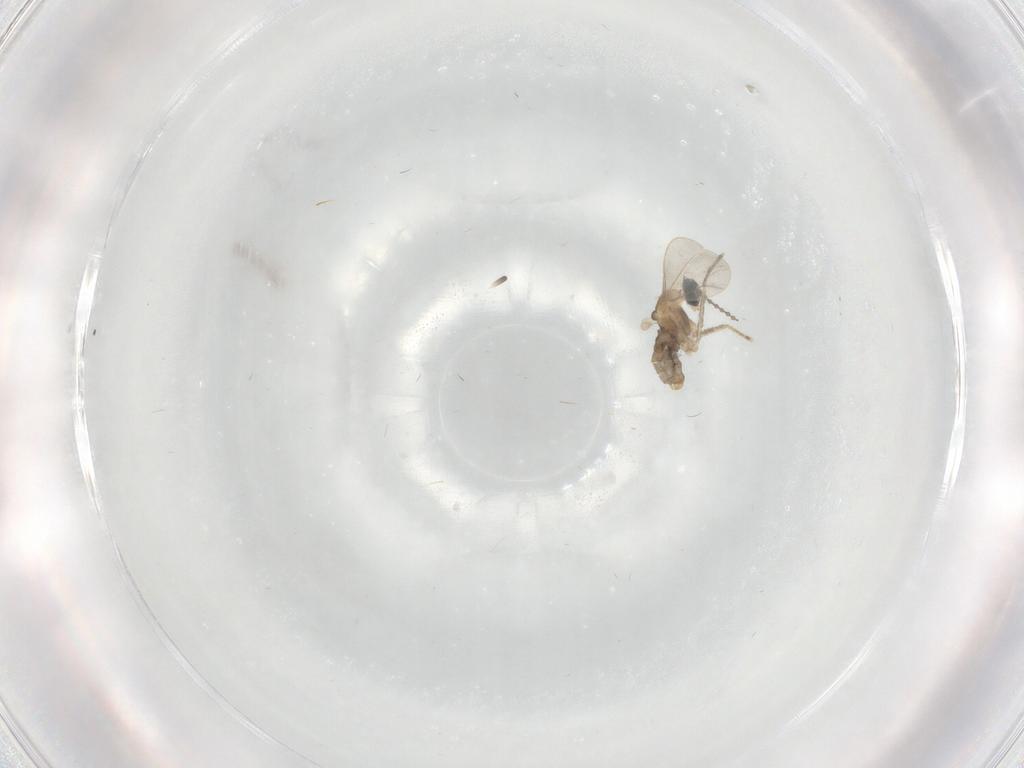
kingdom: Animalia
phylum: Arthropoda
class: Insecta
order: Diptera
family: Cecidomyiidae
